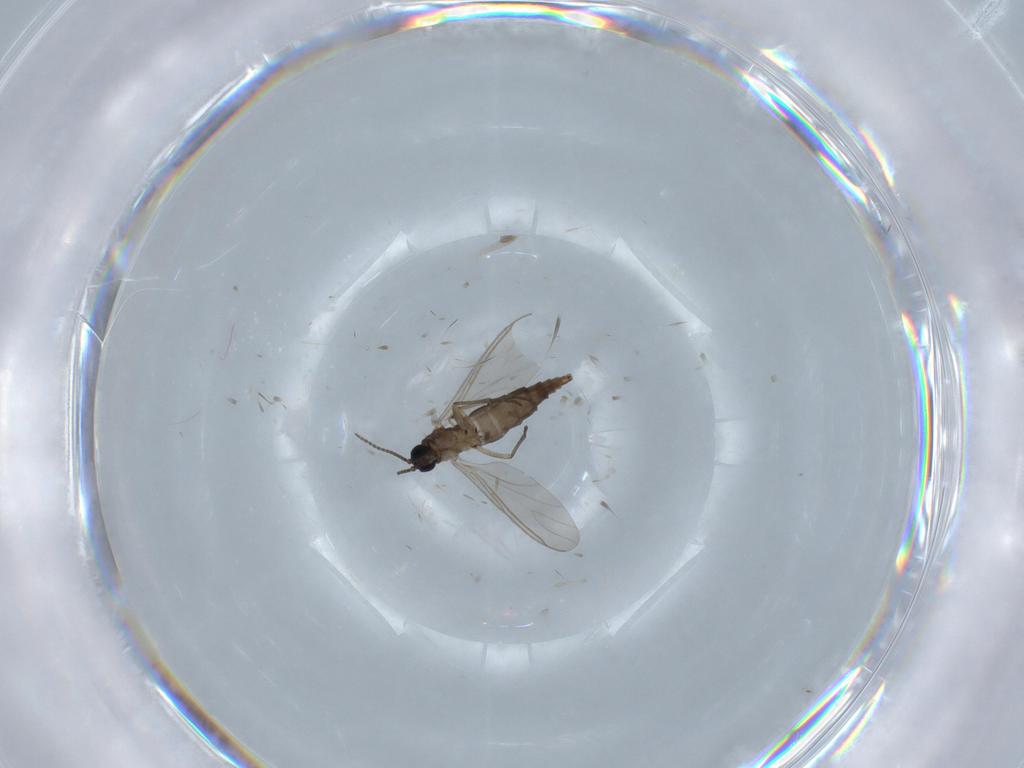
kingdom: Animalia
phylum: Arthropoda
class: Insecta
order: Diptera
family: Sciaridae
